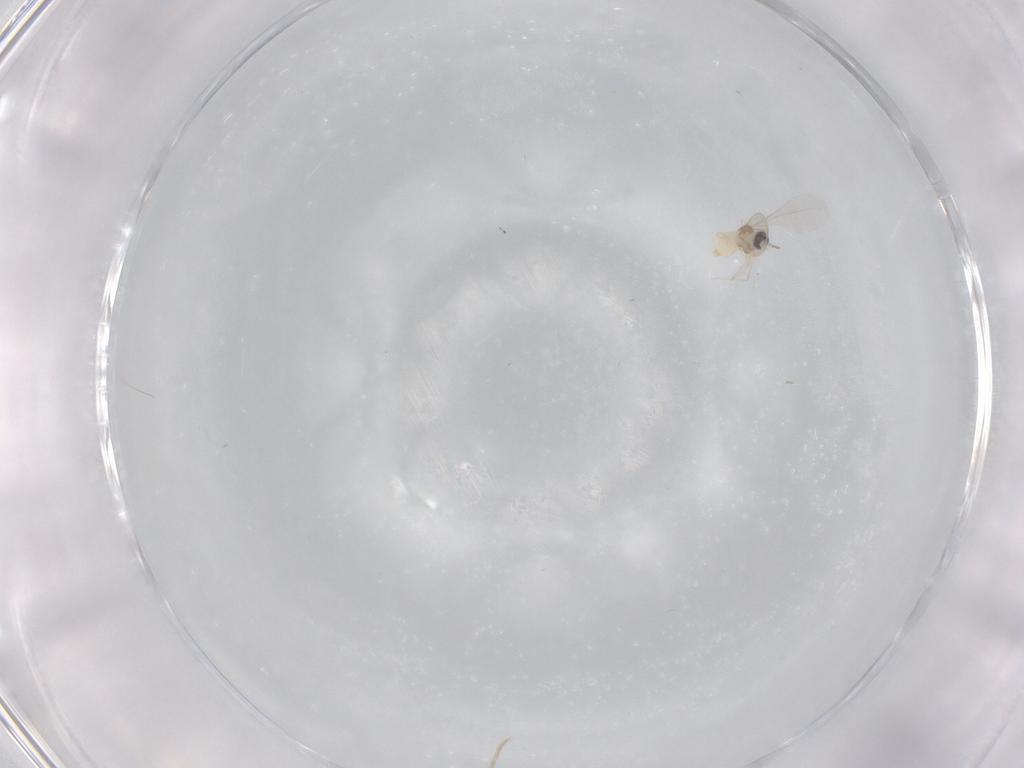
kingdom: Animalia
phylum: Arthropoda
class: Insecta
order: Diptera
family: Cecidomyiidae
